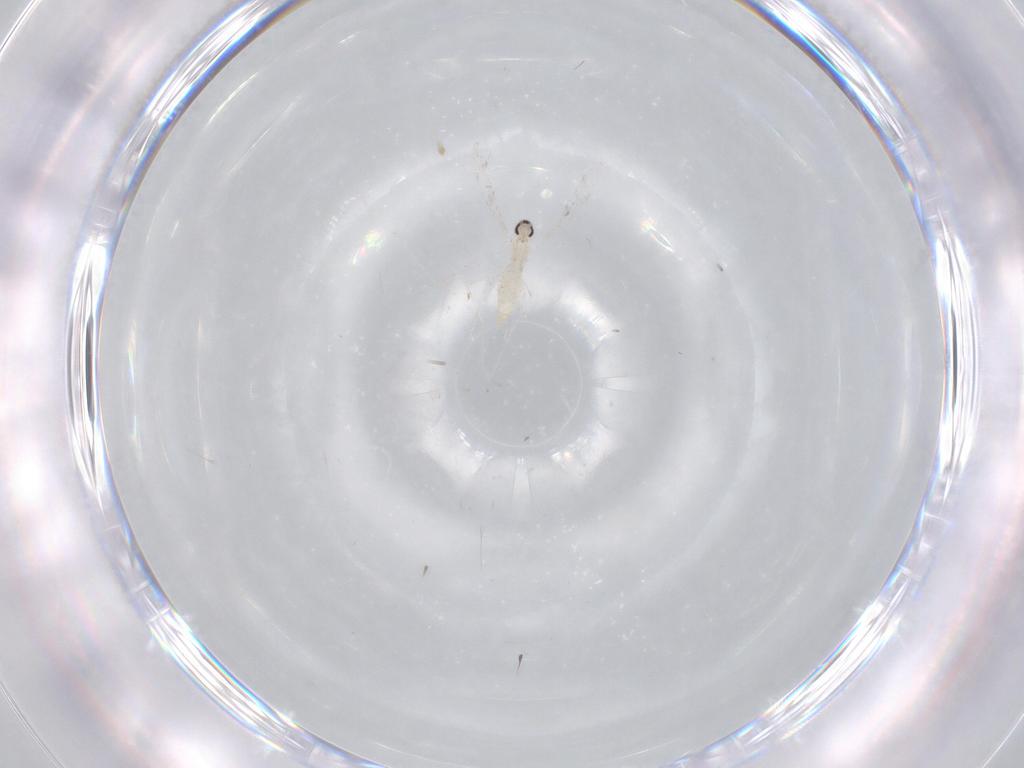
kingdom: Animalia
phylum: Arthropoda
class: Insecta
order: Diptera
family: Cecidomyiidae
